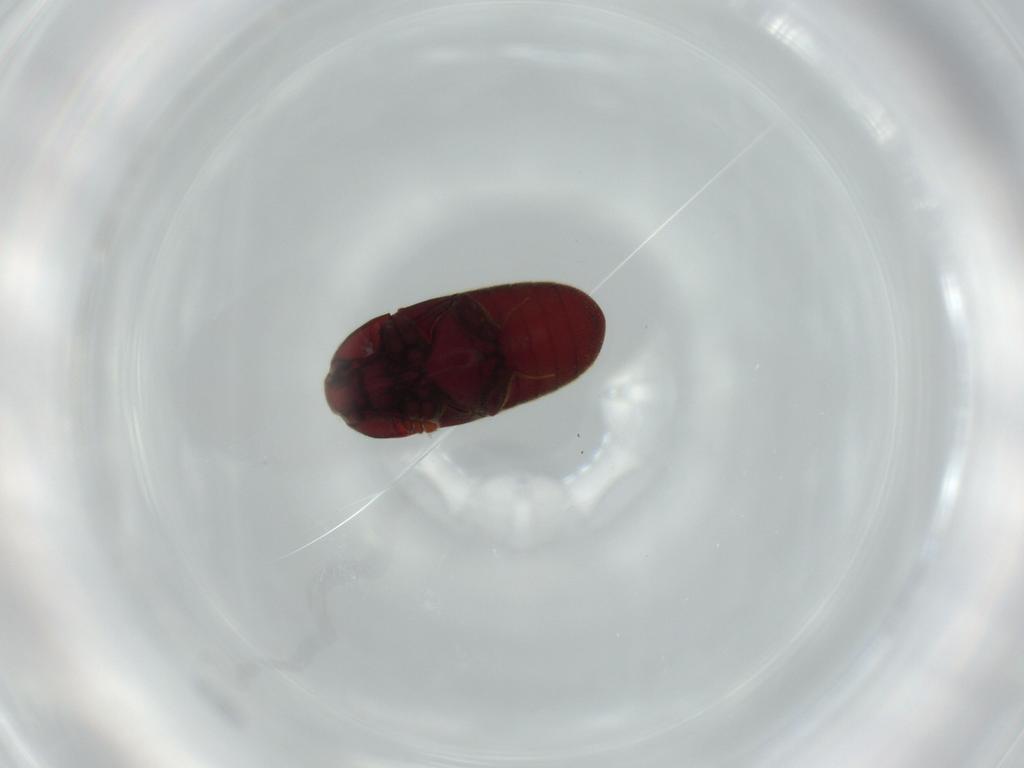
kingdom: Animalia
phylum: Arthropoda
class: Insecta
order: Coleoptera
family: Throscidae
